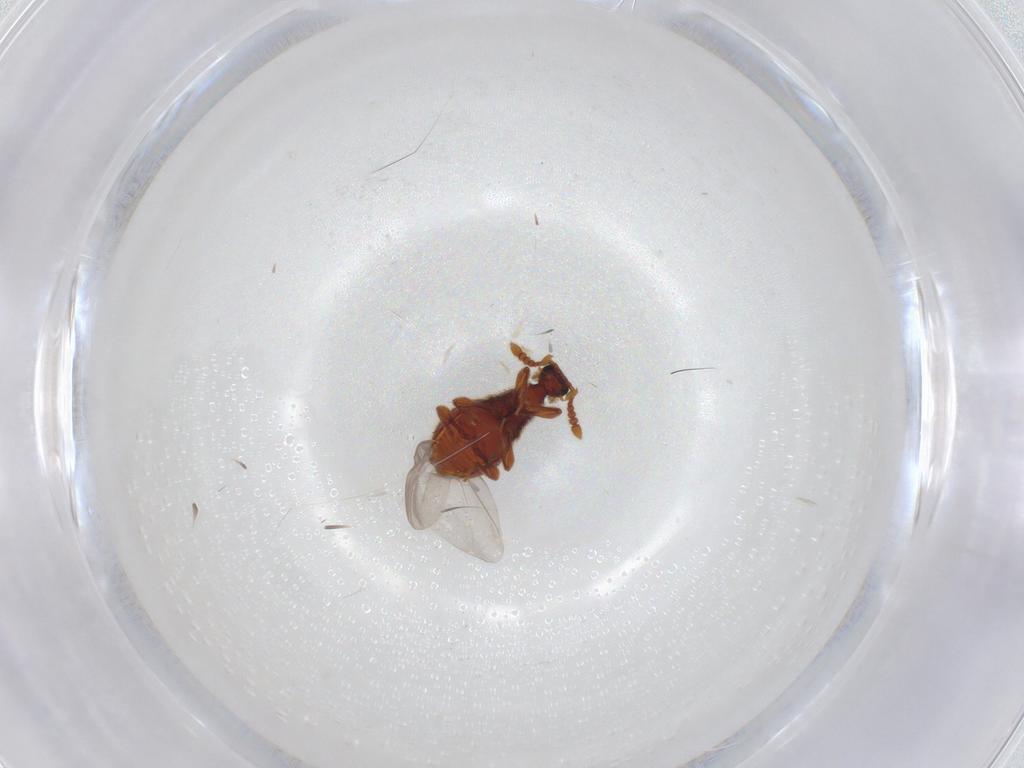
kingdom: Animalia
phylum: Arthropoda
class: Insecta
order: Coleoptera
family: Staphylinidae
